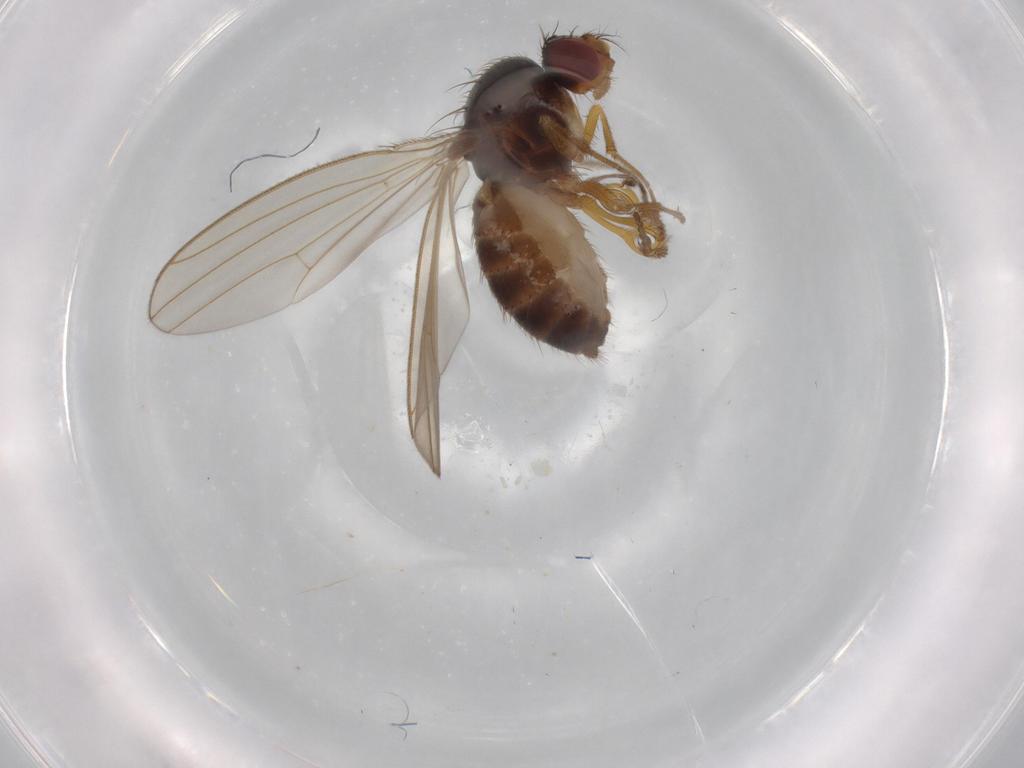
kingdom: Animalia
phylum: Arthropoda
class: Insecta
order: Diptera
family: Drosophilidae
